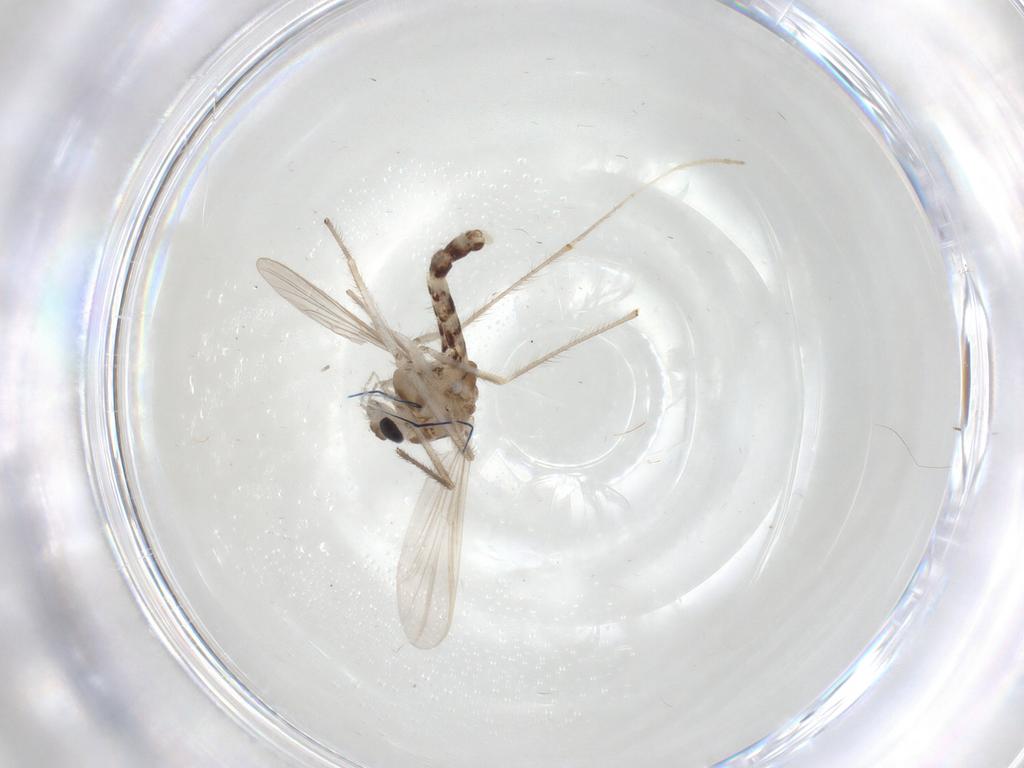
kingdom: Animalia
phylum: Arthropoda
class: Insecta
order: Diptera
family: Chironomidae
